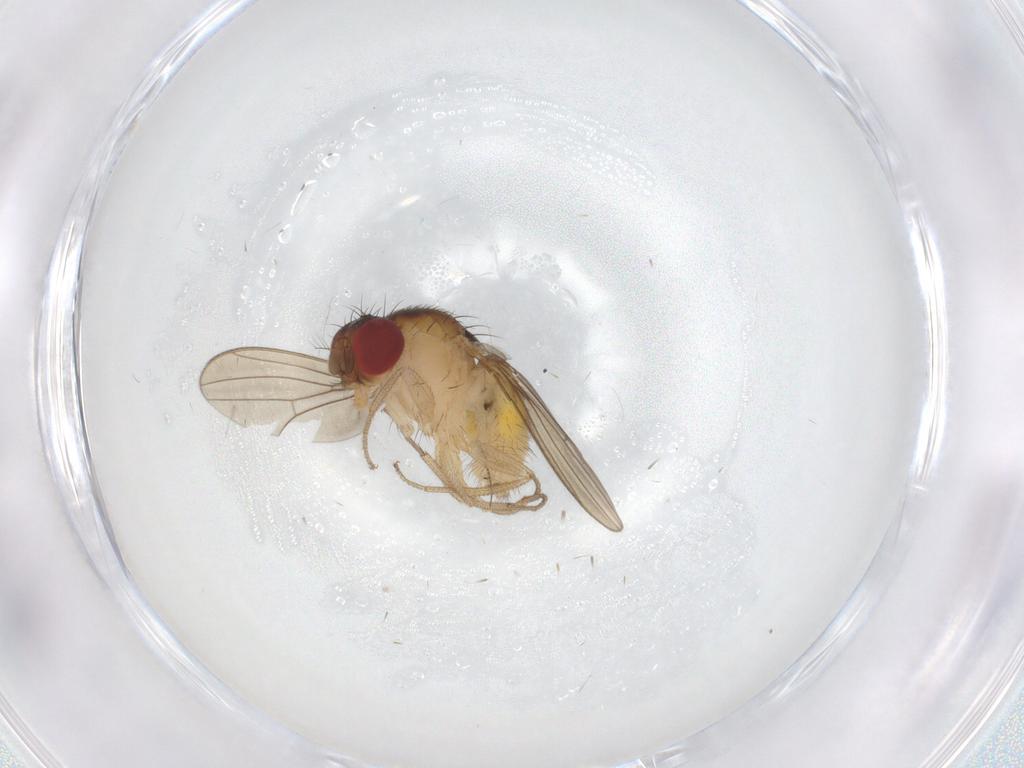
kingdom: Animalia
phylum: Arthropoda
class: Insecta
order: Diptera
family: Drosophilidae
